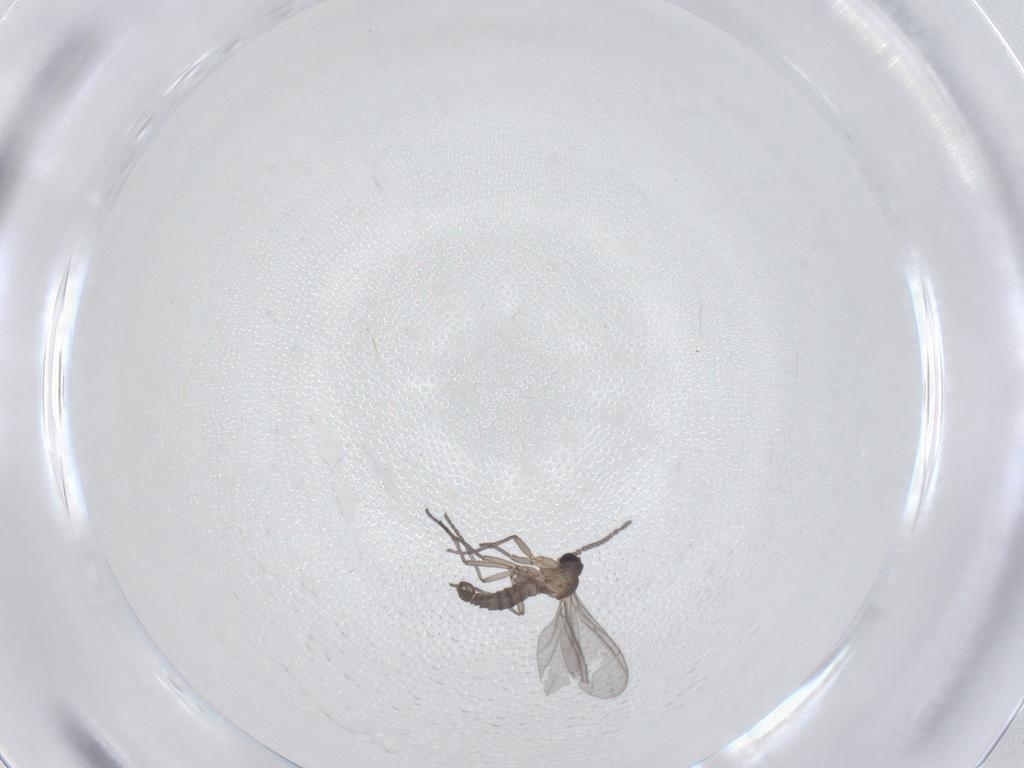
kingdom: Animalia
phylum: Arthropoda
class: Insecta
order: Diptera
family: Sciaridae
